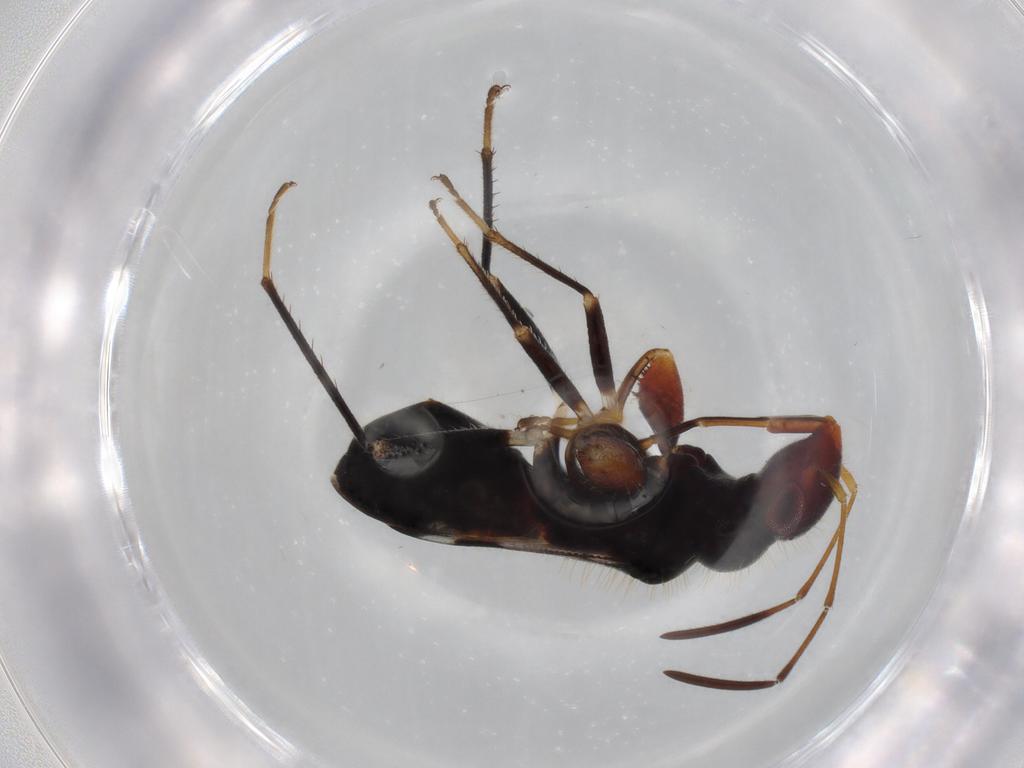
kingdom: Animalia
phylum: Arthropoda
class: Insecta
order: Hemiptera
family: Rhyparochromidae
